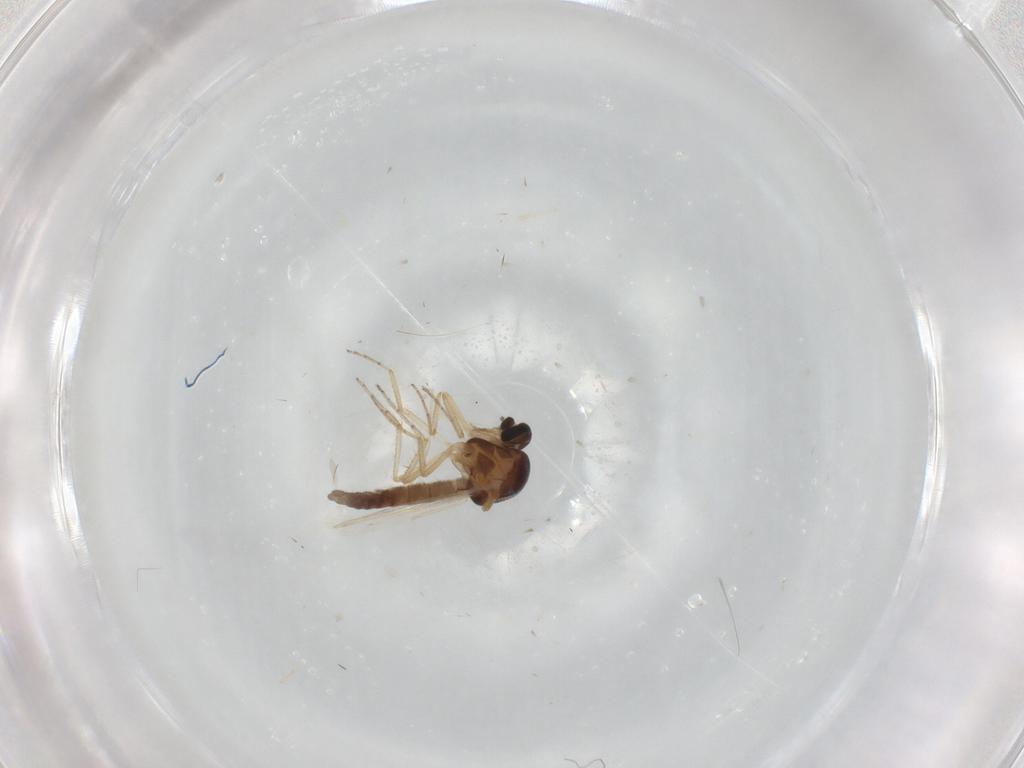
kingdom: Animalia
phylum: Arthropoda
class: Insecta
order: Diptera
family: Ceratopogonidae
